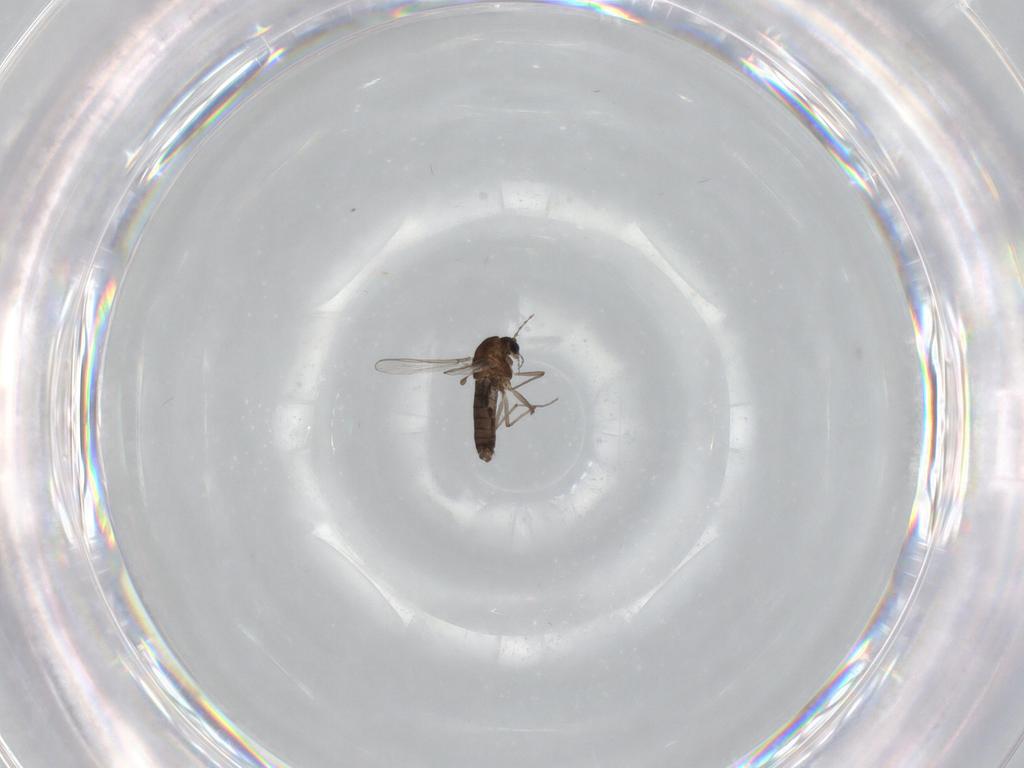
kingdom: Animalia
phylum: Arthropoda
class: Insecta
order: Diptera
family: Chironomidae
